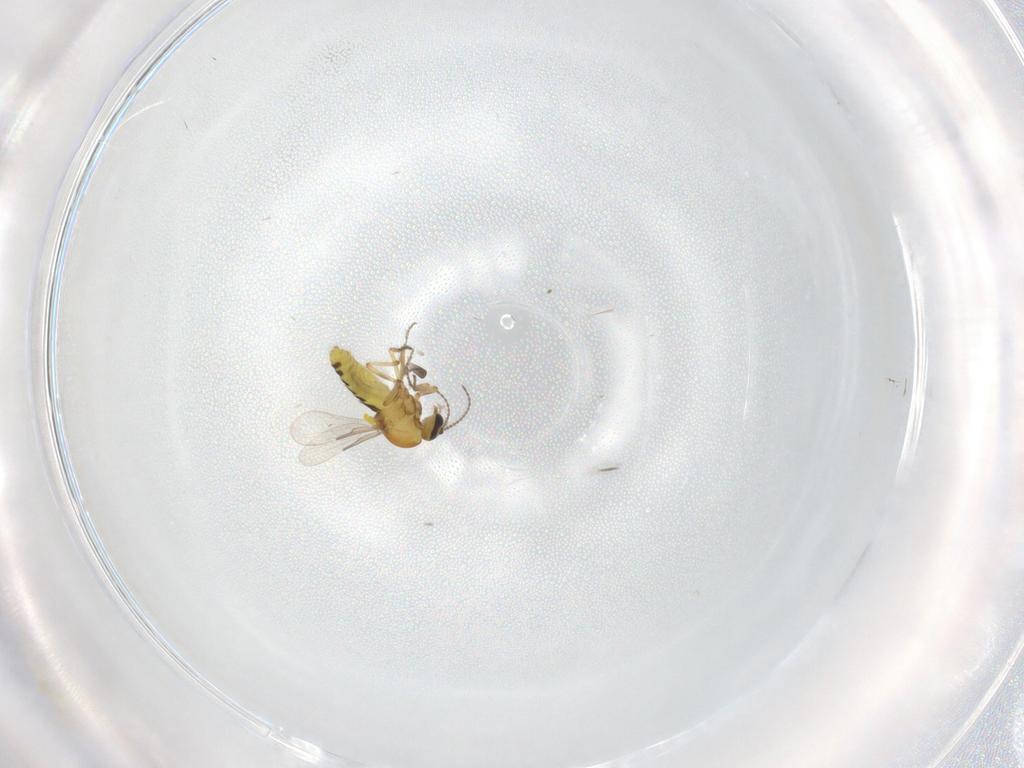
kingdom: Animalia
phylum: Arthropoda
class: Insecta
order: Diptera
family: Ceratopogonidae
